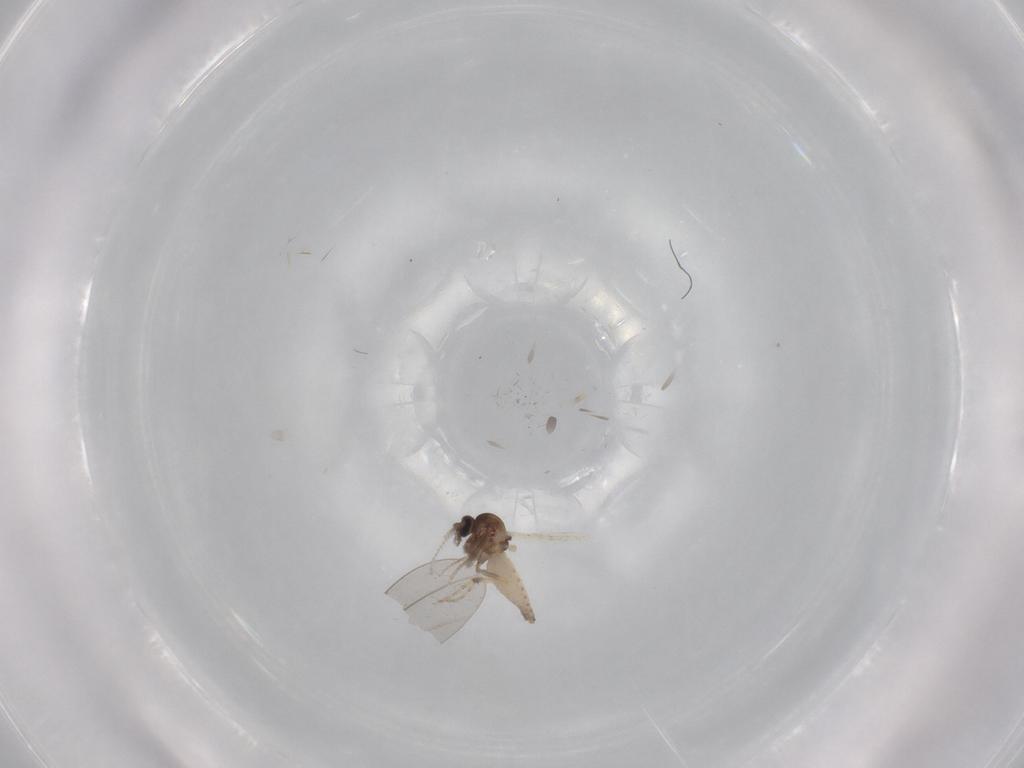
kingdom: Animalia
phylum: Arthropoda
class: Insecta
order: Diptera
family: Ceratopogonidae
